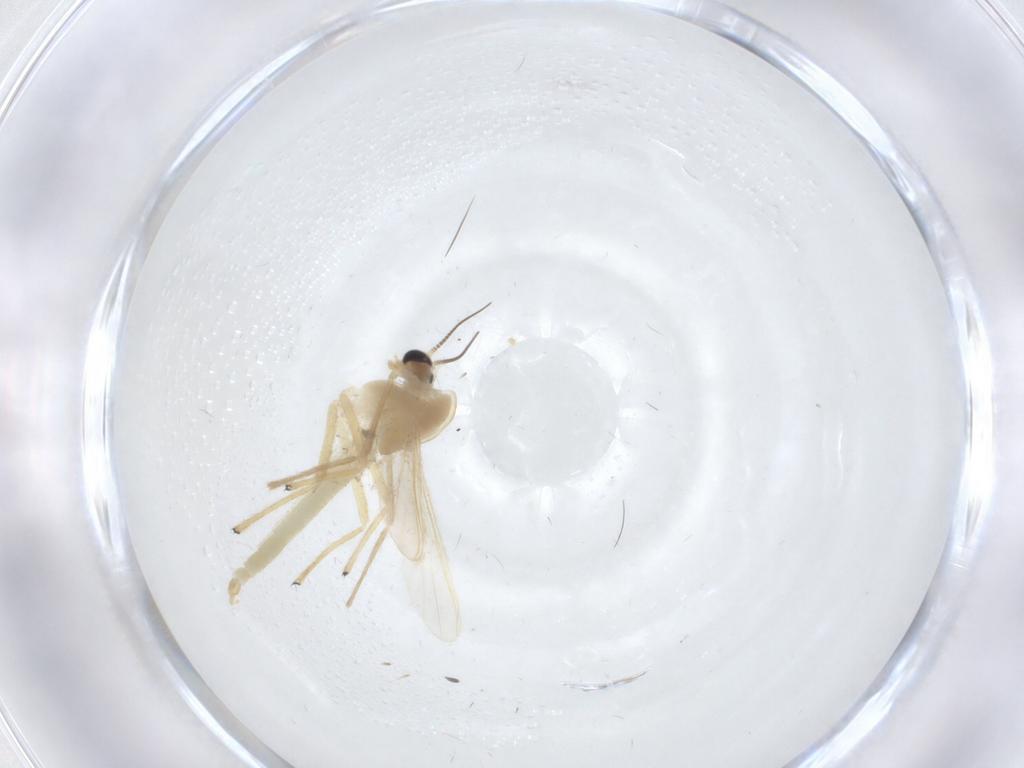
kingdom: Animalia
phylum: Arthropoda
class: Insecta
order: Diptera
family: Chironomidae
